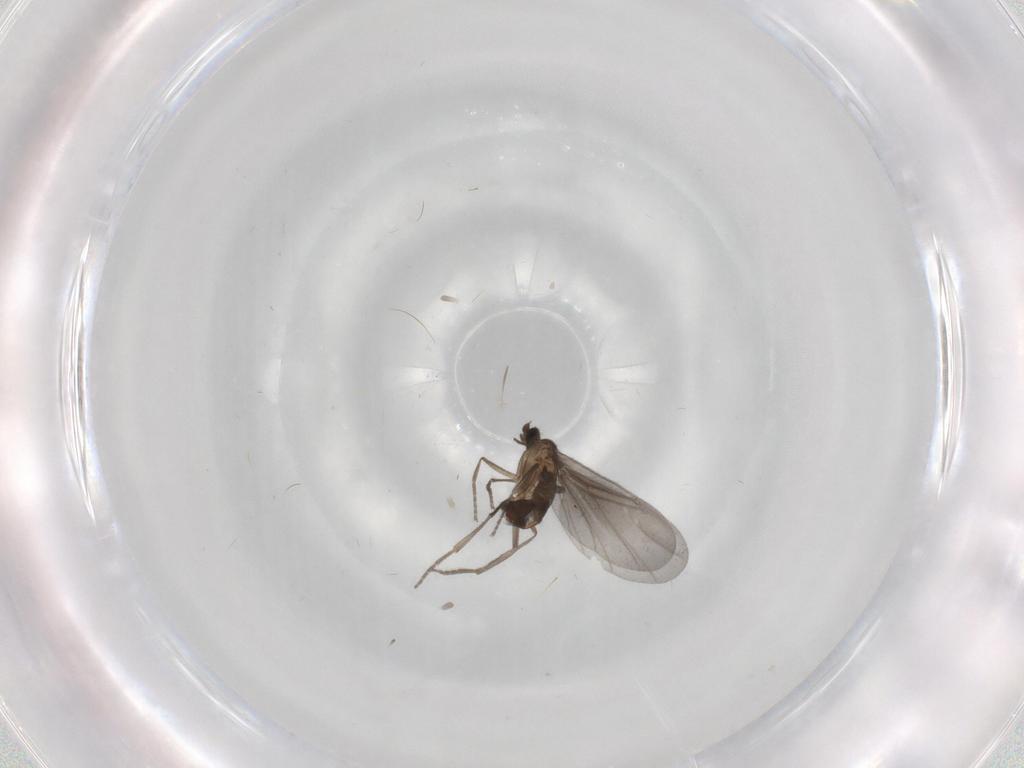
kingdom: Animalia
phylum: Arthropoda
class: Insecta
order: Diptera
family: Phoridae
